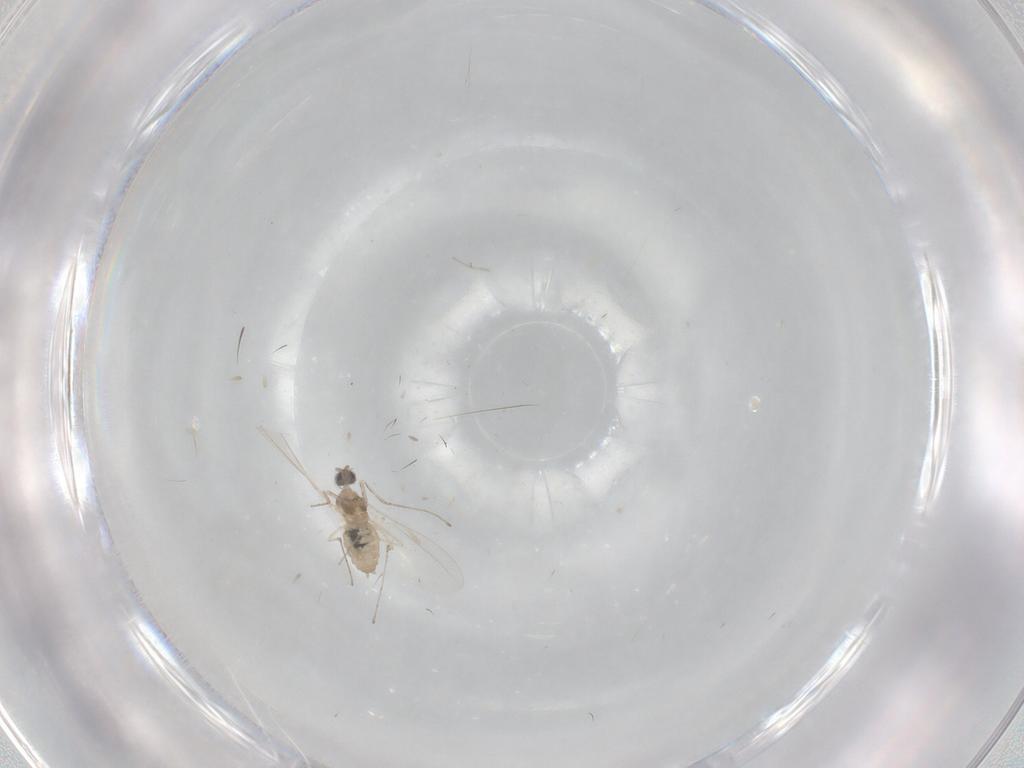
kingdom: Animalia
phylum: Arthropoda
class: Insecta
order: Diptera
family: Cecidomyiidae
